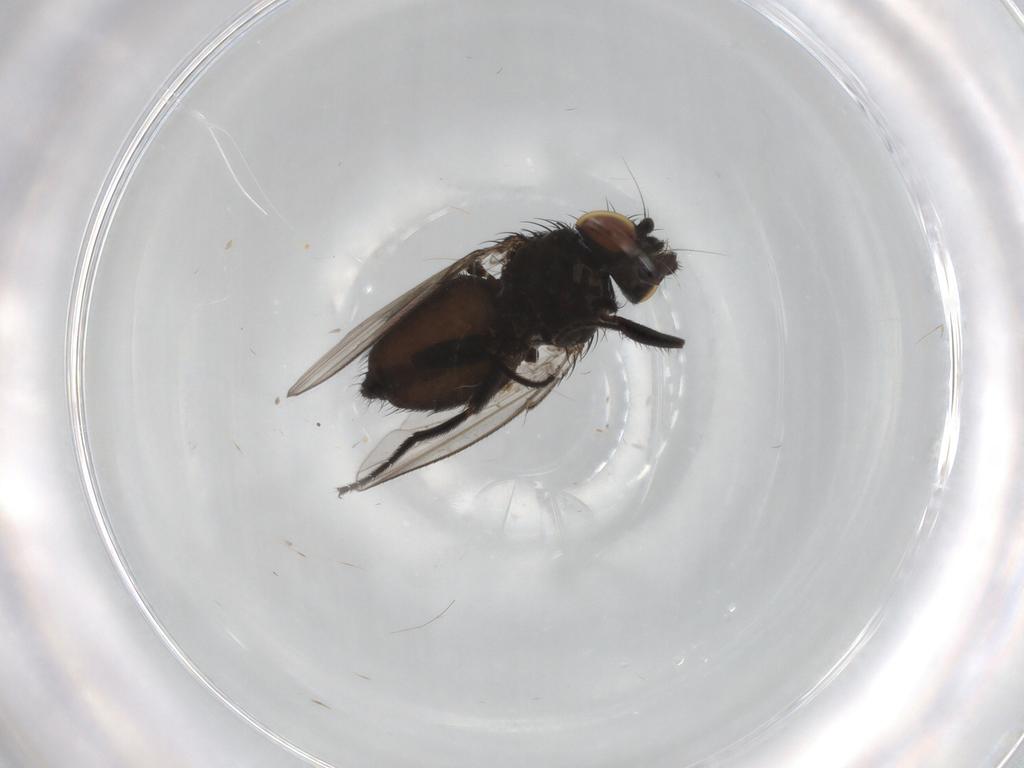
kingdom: Animalia
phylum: Arthropoda
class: Insecta
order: Diptera
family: Milichiidae
